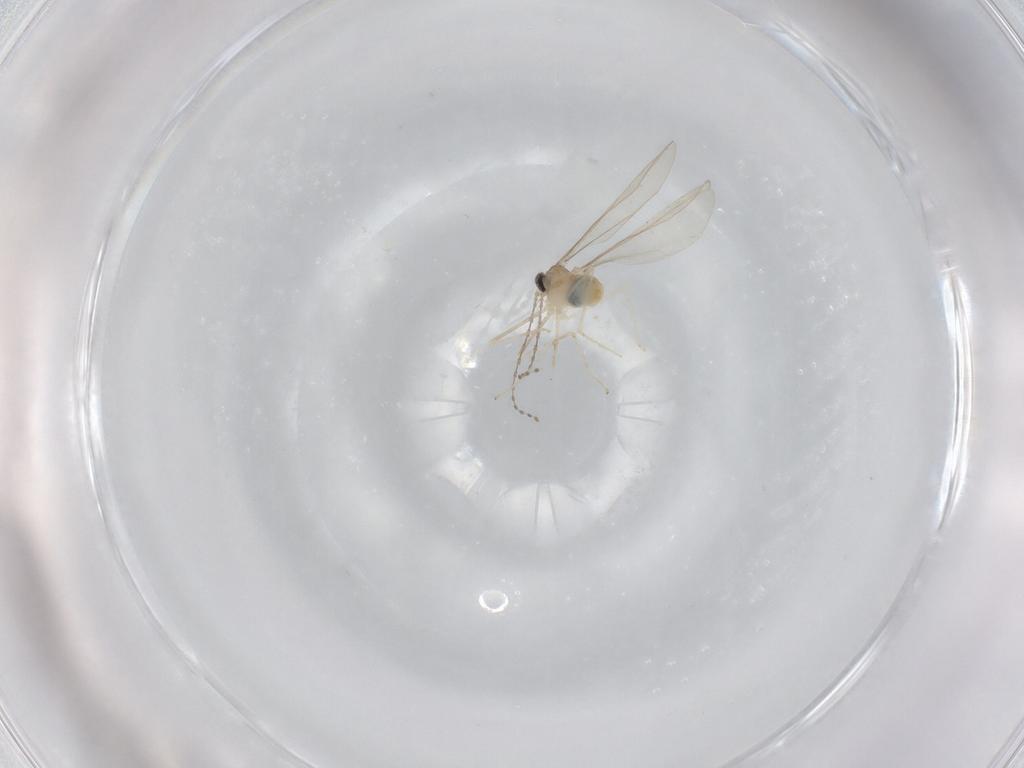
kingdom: Animalia
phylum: Arthropoda
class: Insecta
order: Diptera
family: Cecidomyiidae
